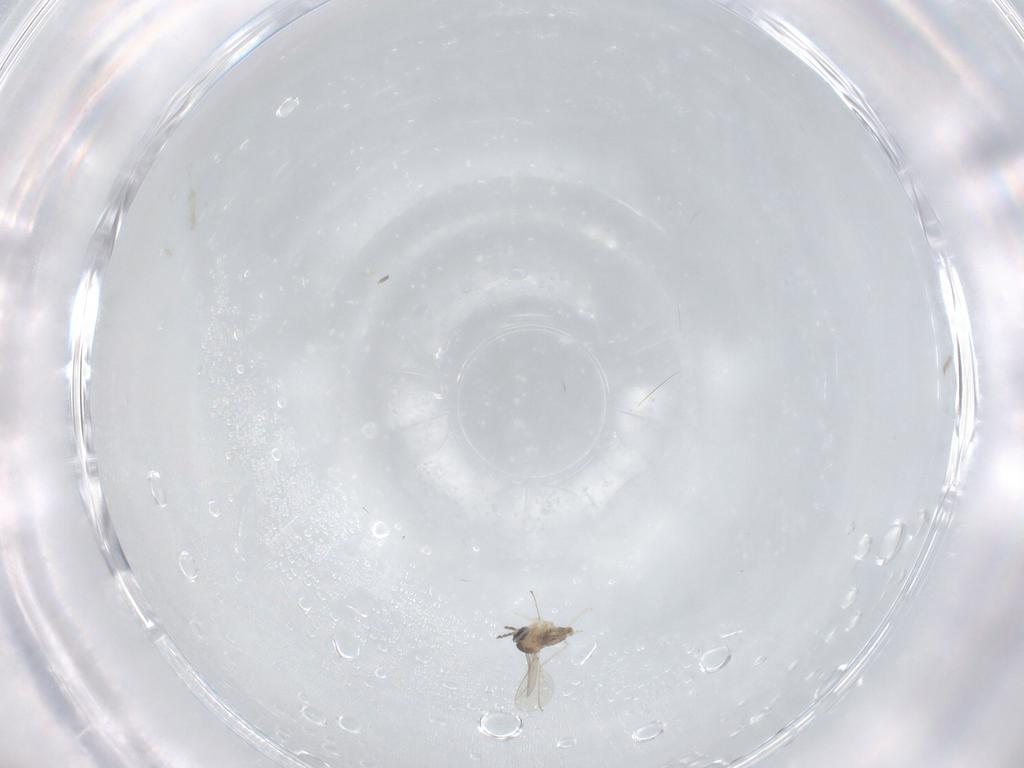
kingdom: Animalia
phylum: Arthropoda
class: Insecta
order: Diptera
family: Cecidomyiidae
